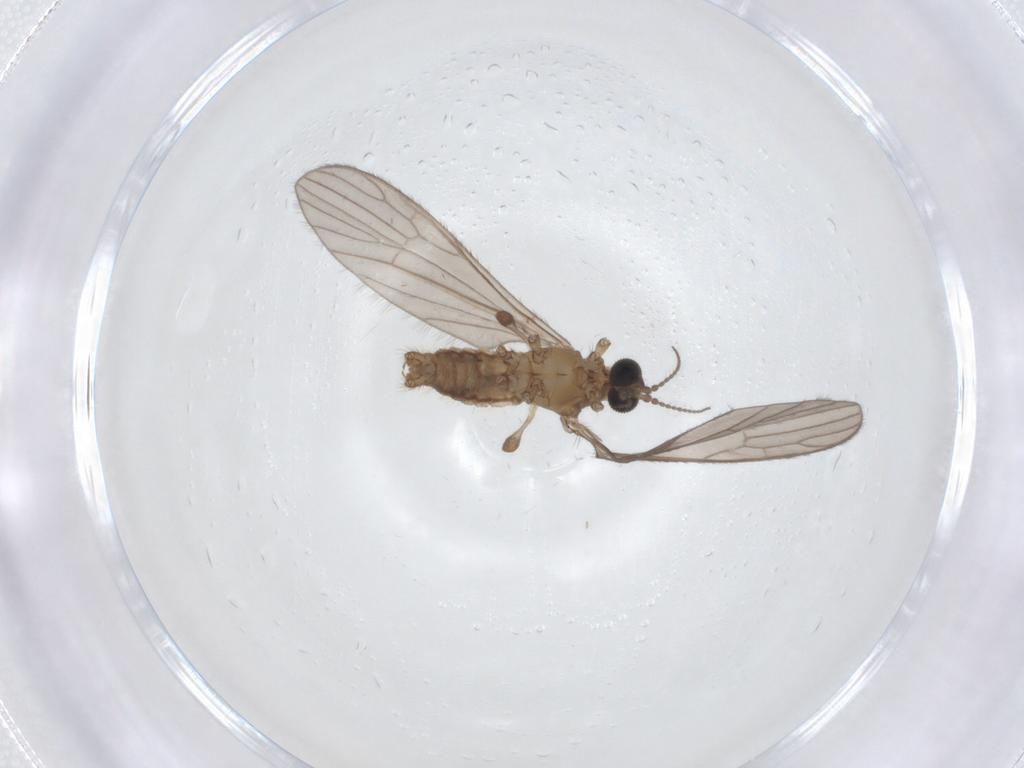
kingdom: Animalia
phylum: Arthropoda
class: Insecta
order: Diptera
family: Limoniidae
